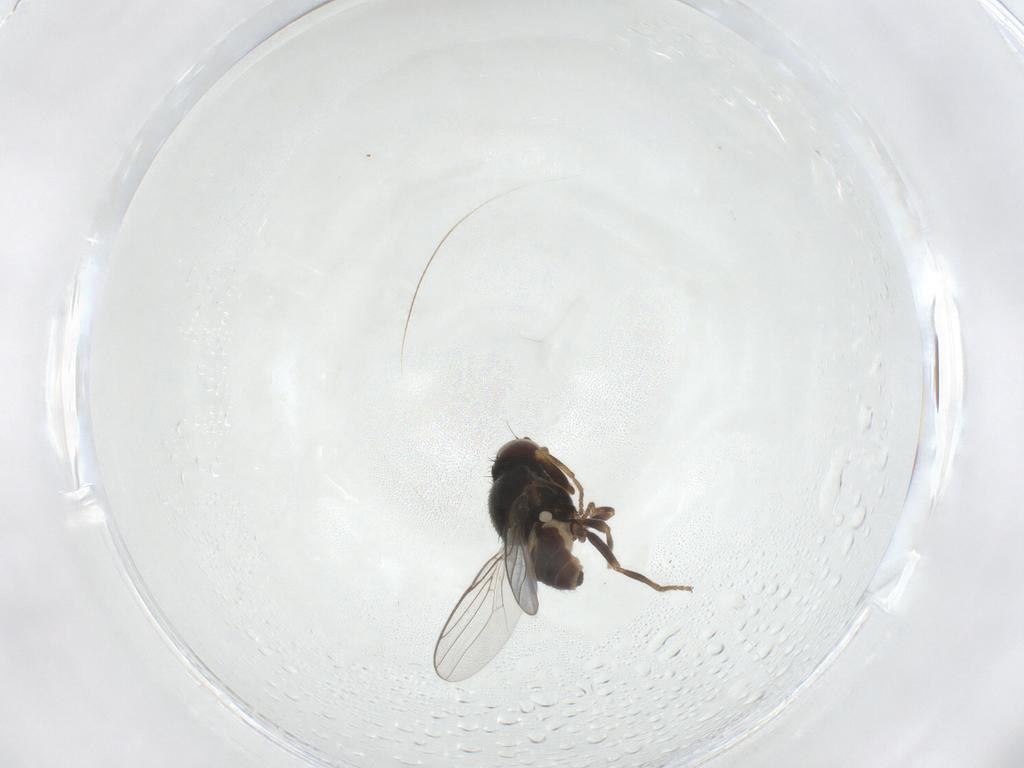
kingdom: Animalia
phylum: Arthropoda
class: Insecta
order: Diptera
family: Chloropidae
